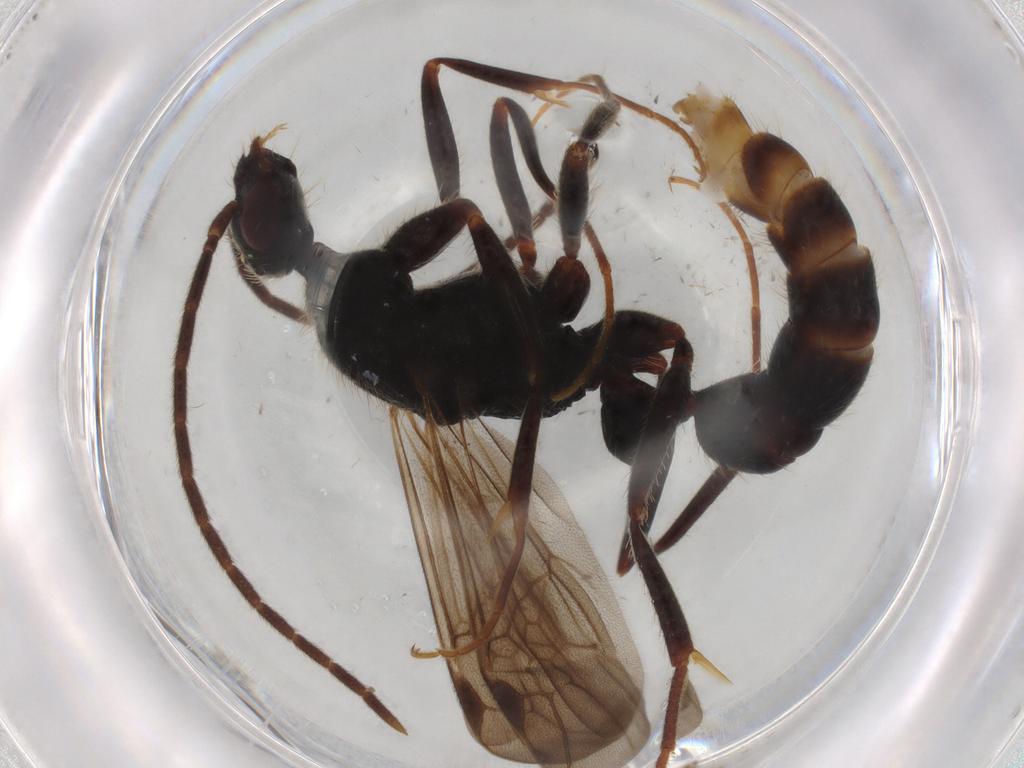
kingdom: Animalia
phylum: Arthropoda
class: Insecta
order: Hymenoptera
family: Formicidae
